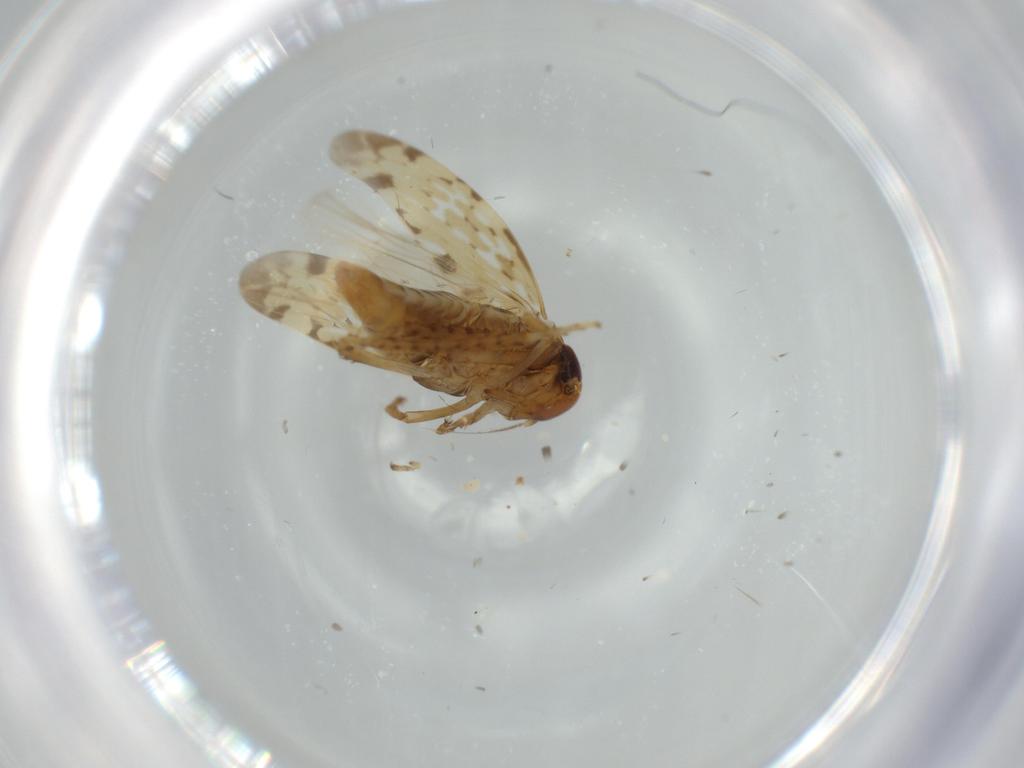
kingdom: Animalia
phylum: Arthropoda
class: Insecta
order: Hemiptera
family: Cicadellidae
